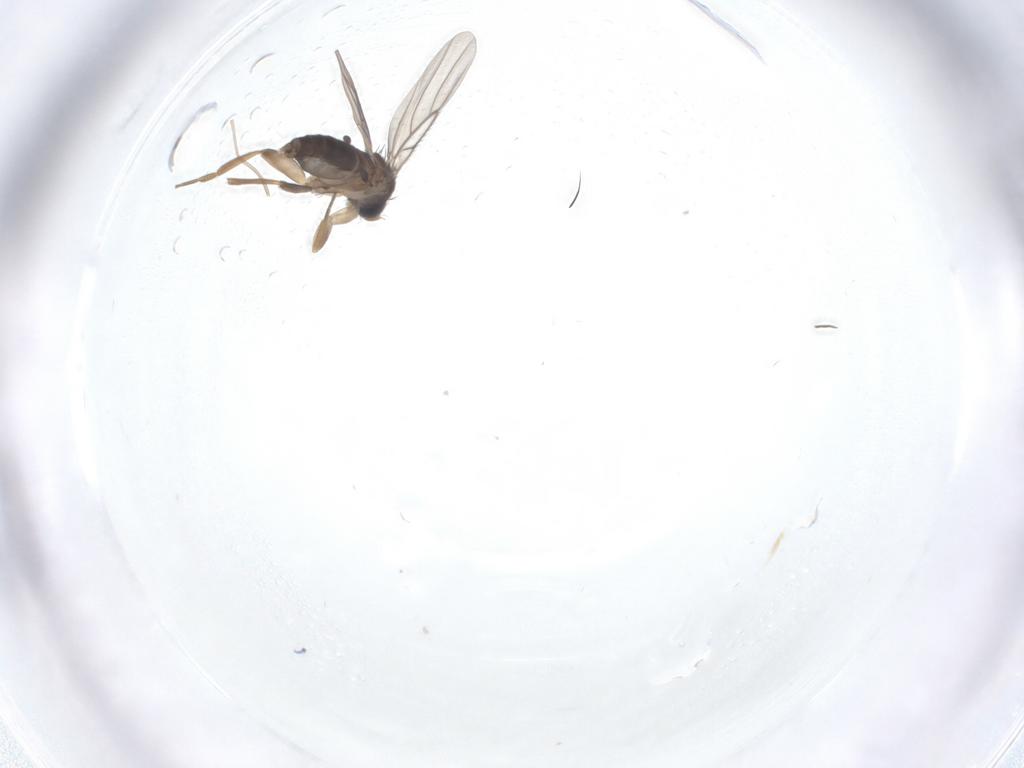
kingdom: Animalia
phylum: Arthropoda
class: Insecta
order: Diptera
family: Phoridae
